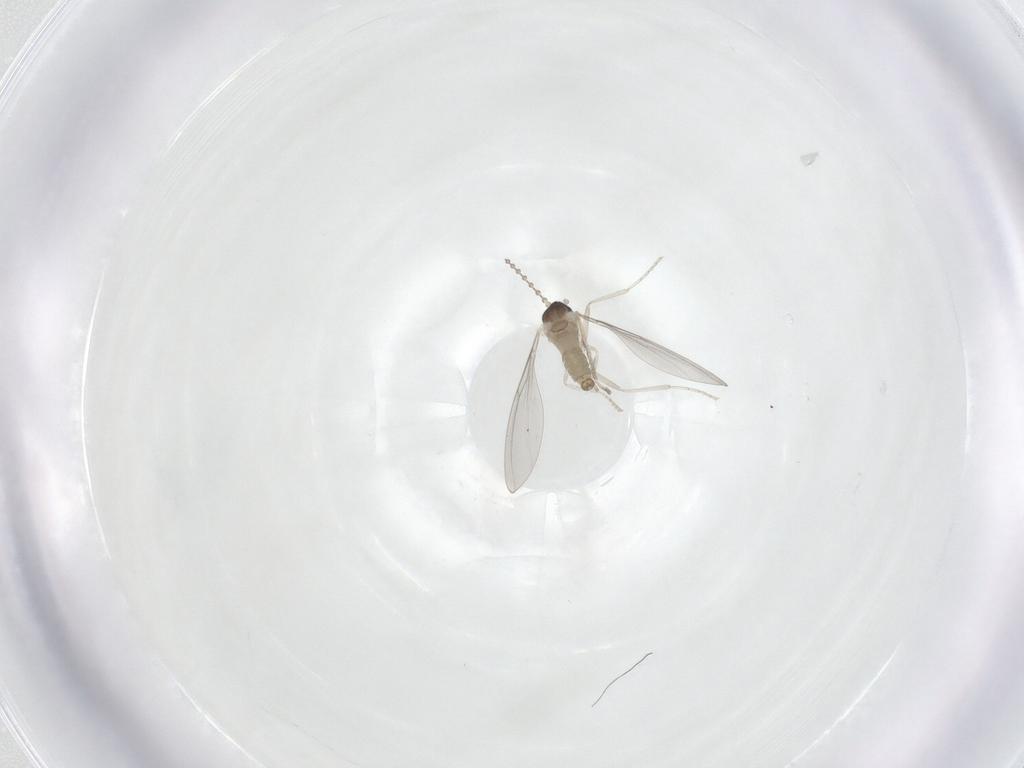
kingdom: Animalia
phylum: Arthropoda
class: Insecta
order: Diptera
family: Cecidomyiidae
